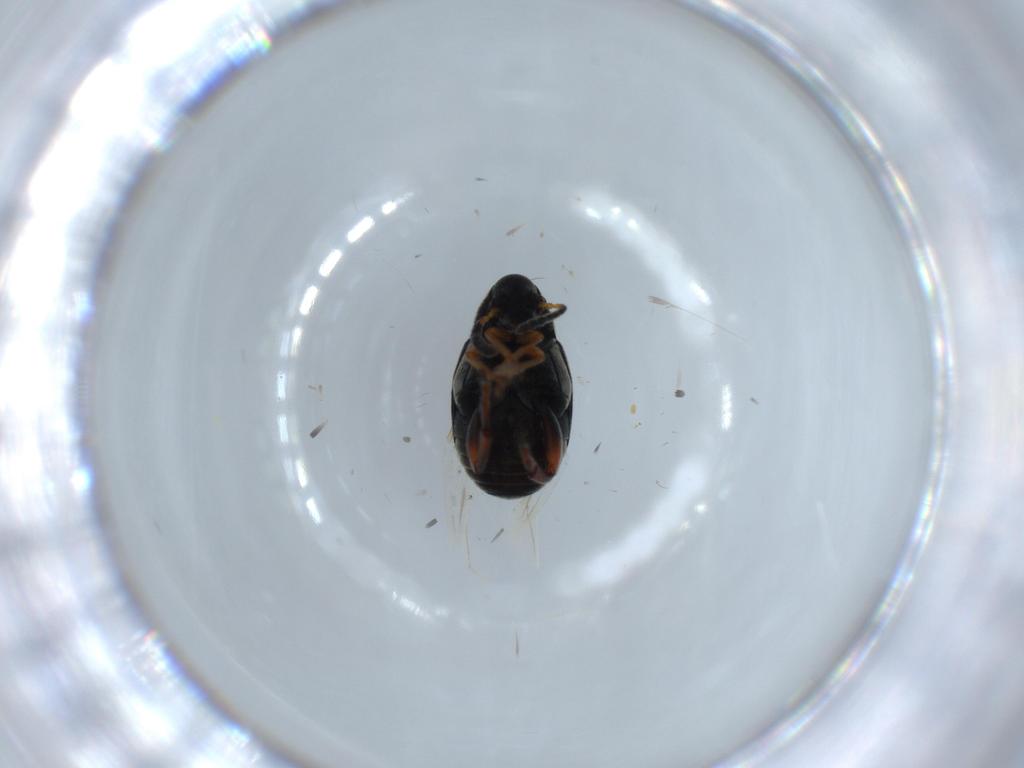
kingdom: Animalia
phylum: Arthropoda
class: Insecta
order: Coleoptera
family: Chrysomelidae
